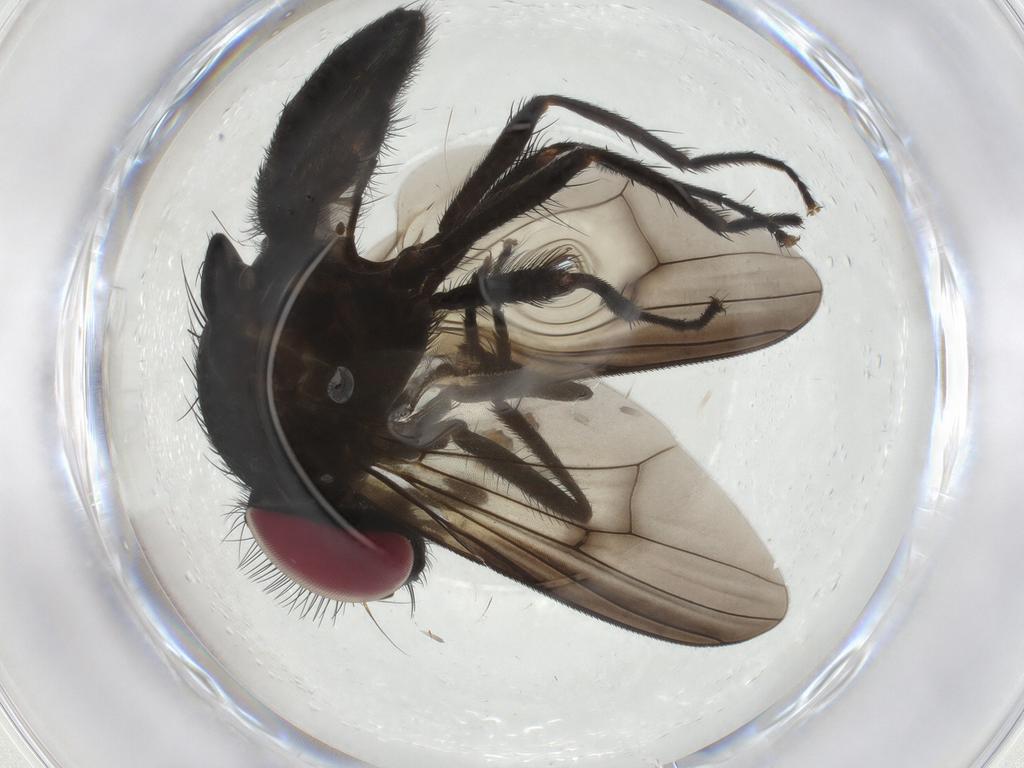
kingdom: Animalia
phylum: Arthropoda
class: Insecta
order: Diptera
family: Fannia
